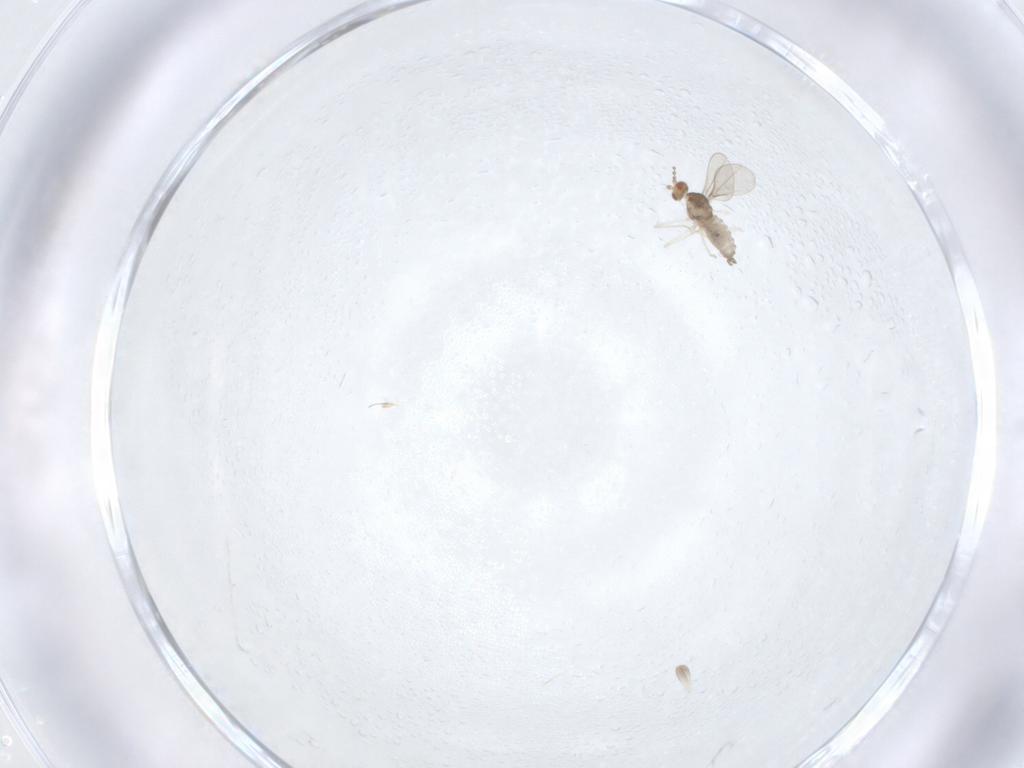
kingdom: Animalia
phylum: Arthropoda
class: Insecta
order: Diptera
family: Cecidomyiidae
